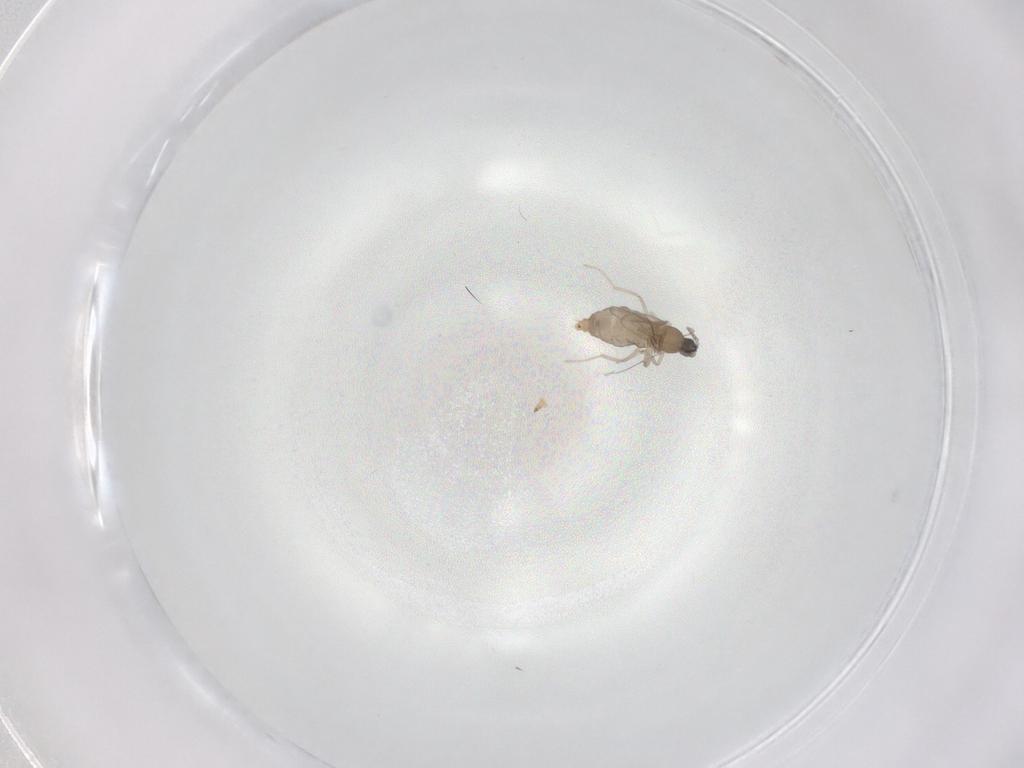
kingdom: Animalia
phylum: Arthropoda
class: Insecta
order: Diptera
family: Cecidomyiidae
